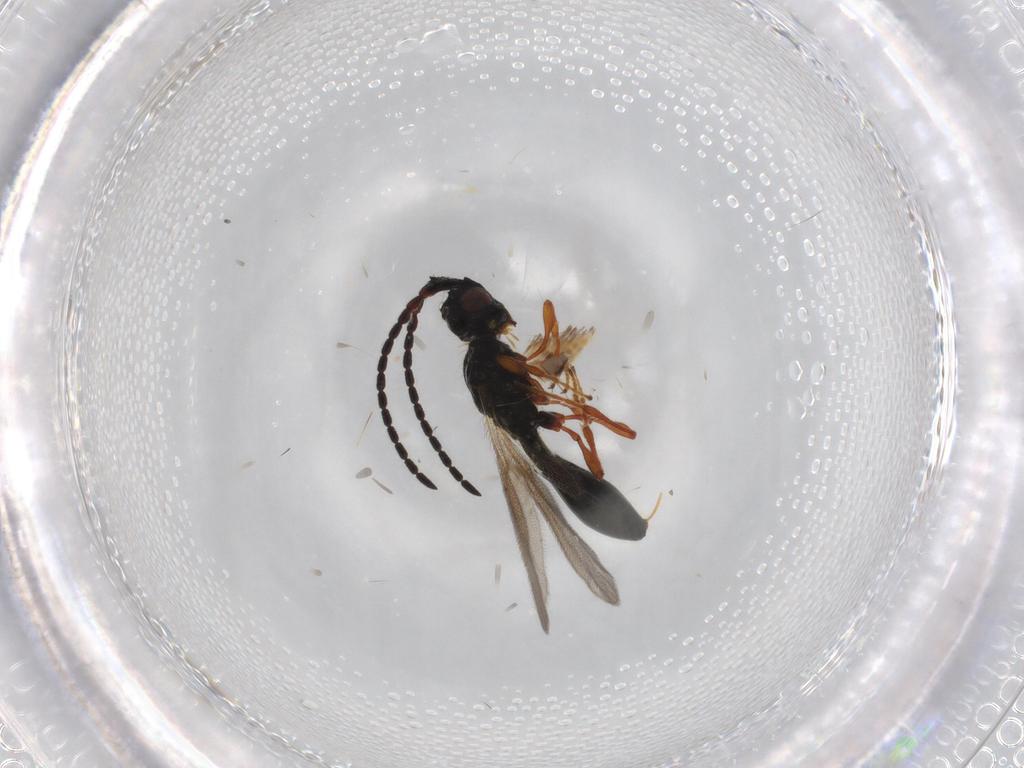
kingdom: Animalia
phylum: Arthropoda
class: Insecta
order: Hymenoptera
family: Diapriidae
